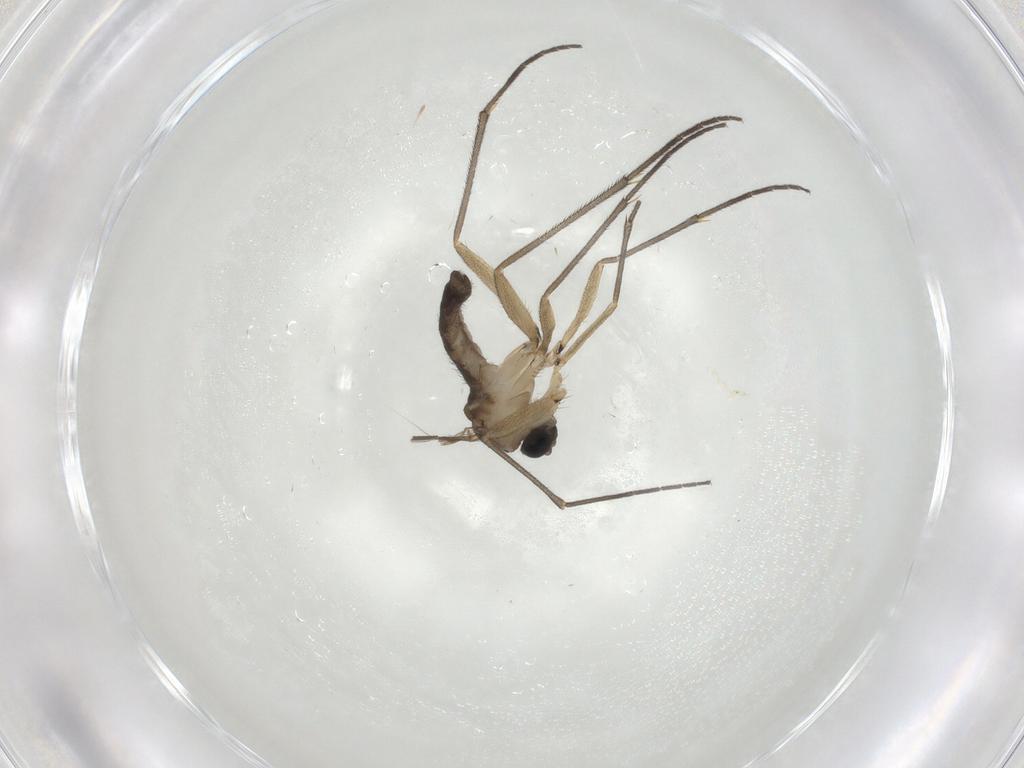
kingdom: Animalia
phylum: Arthropoda
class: Insecta
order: Diptera
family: Sciaridae
